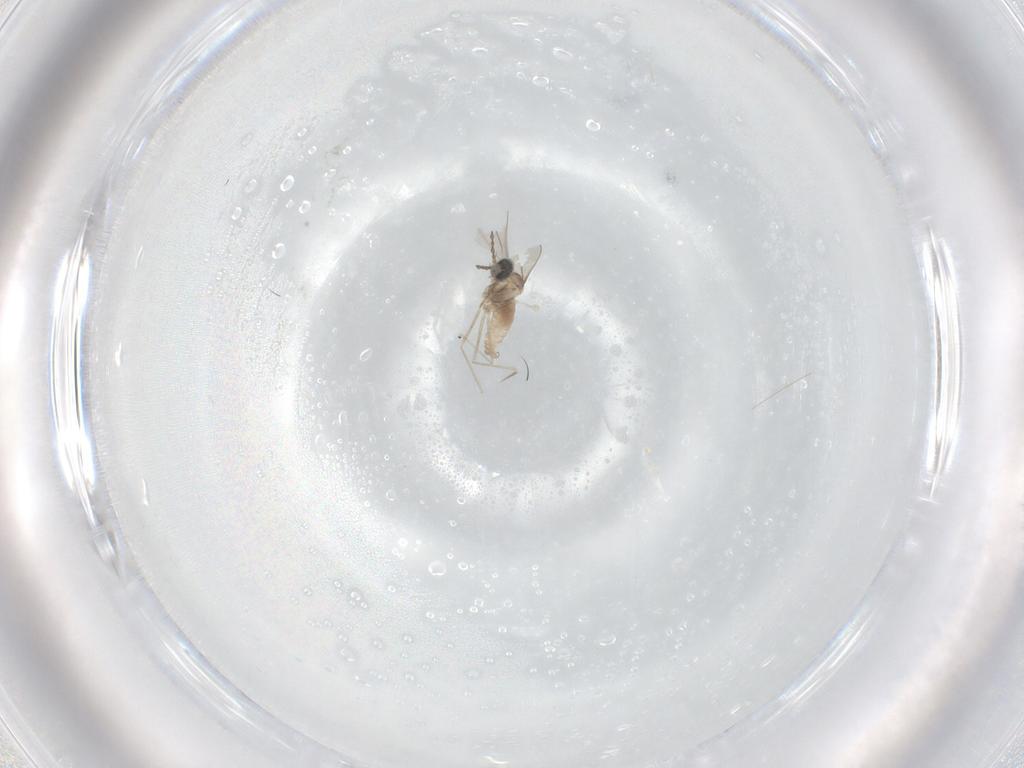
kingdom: Animalia
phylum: Arthropoda
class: Insecta
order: Diptera
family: Cecidomyiidae
